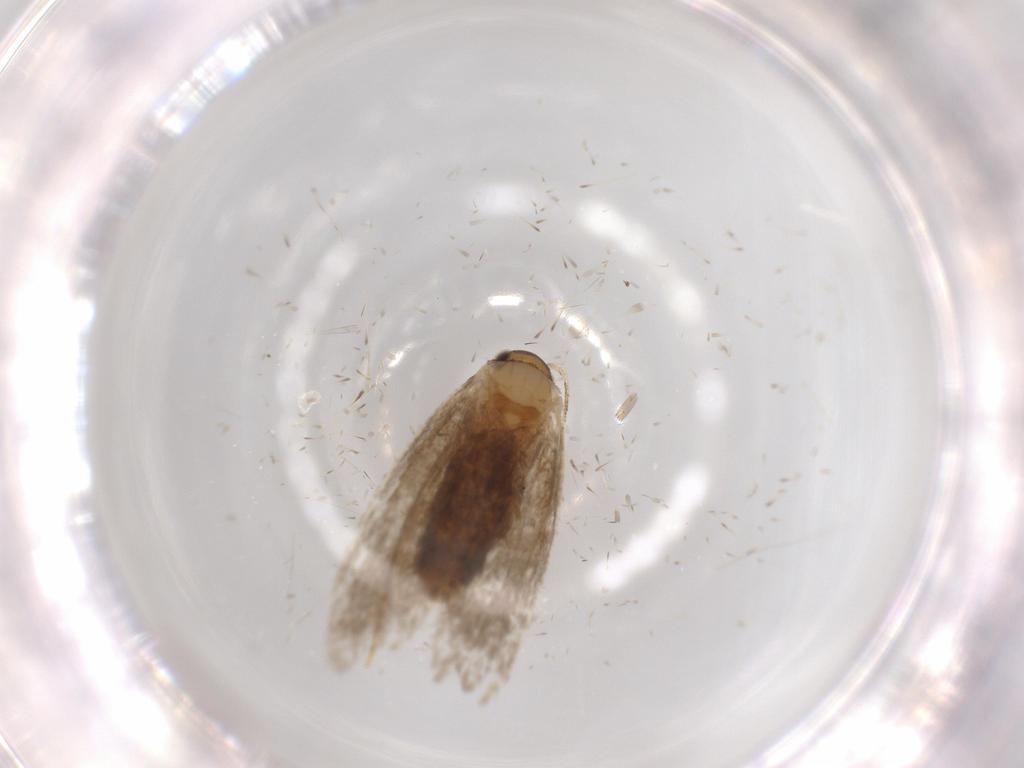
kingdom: Animalia
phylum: Arthropoda
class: Insecta
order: Lepidoptera
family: Tineidae
